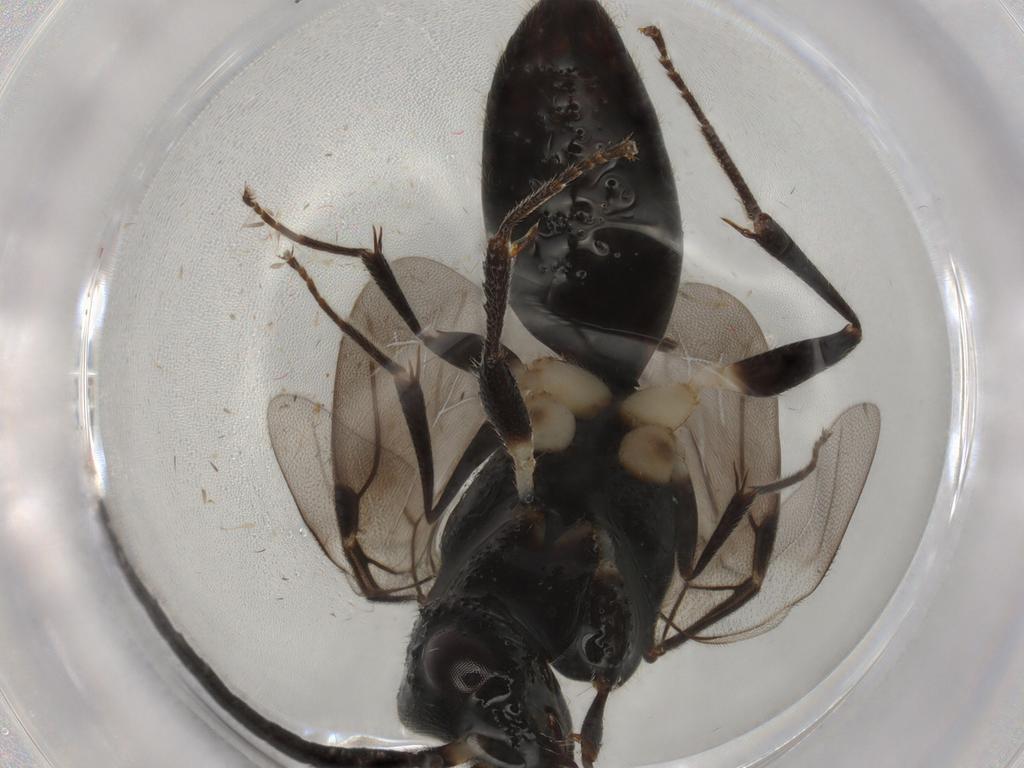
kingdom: Animalia
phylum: Arthropoda
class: Insecta
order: Hymenoptera
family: Bethylidae
